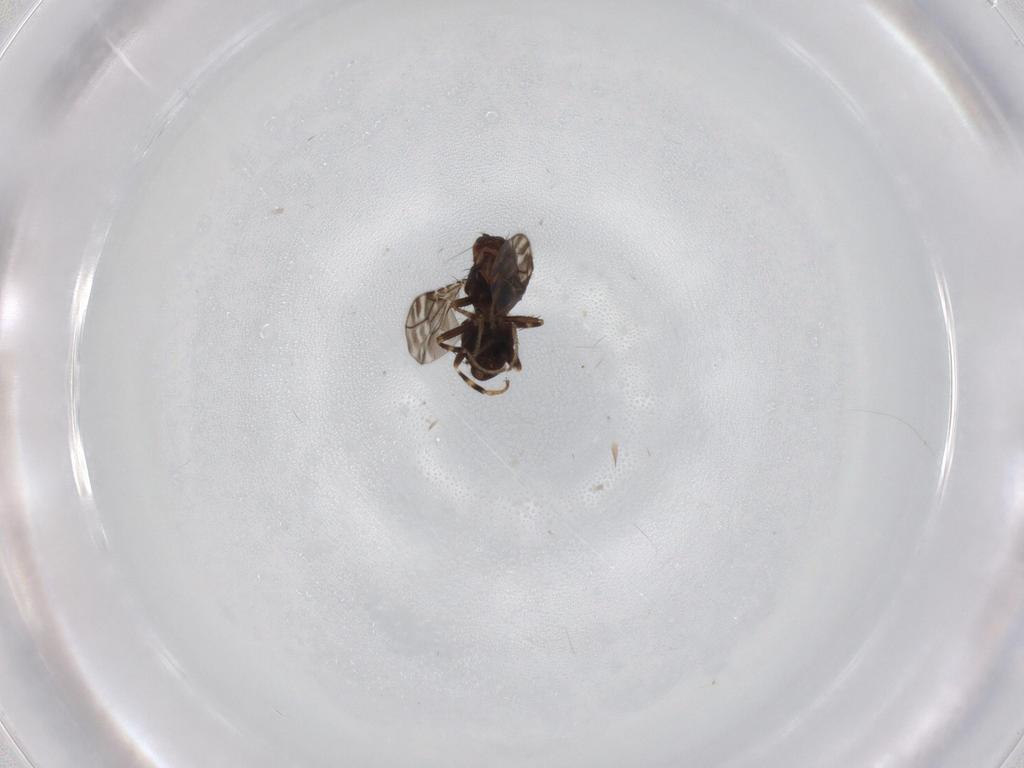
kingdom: Animalia
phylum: Arthropoda
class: Insecta
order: Diptera
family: Sphaeroceridae
